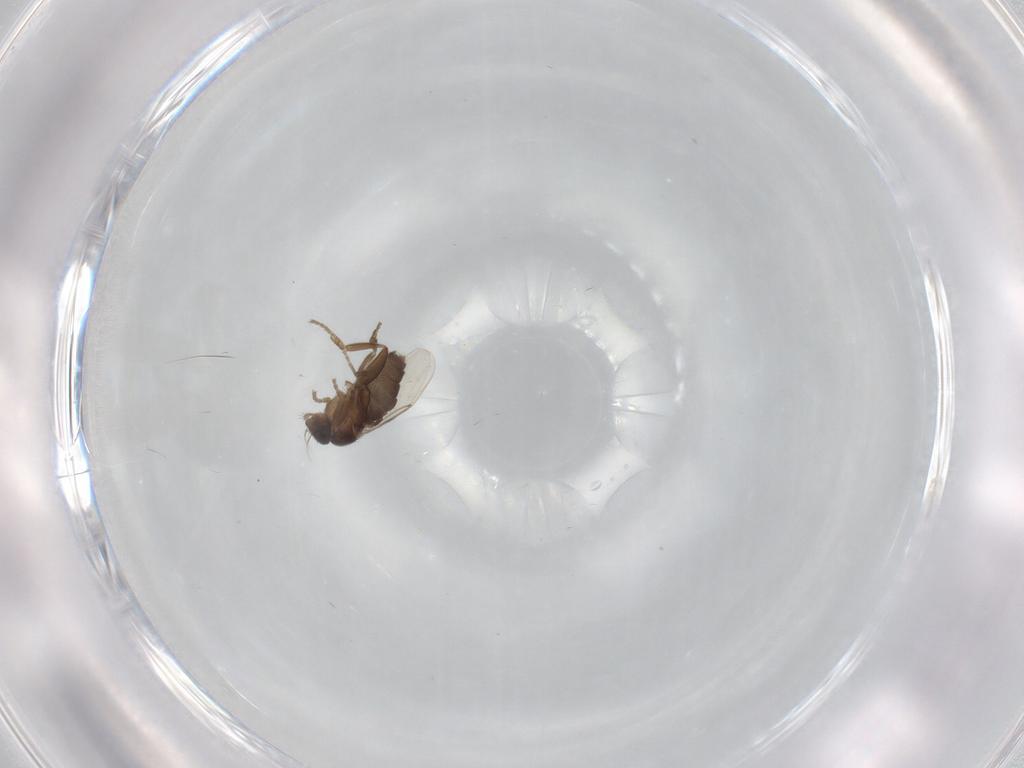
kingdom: Animalia
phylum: Arthropoda
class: Insecta
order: Diptera
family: Phoridae
